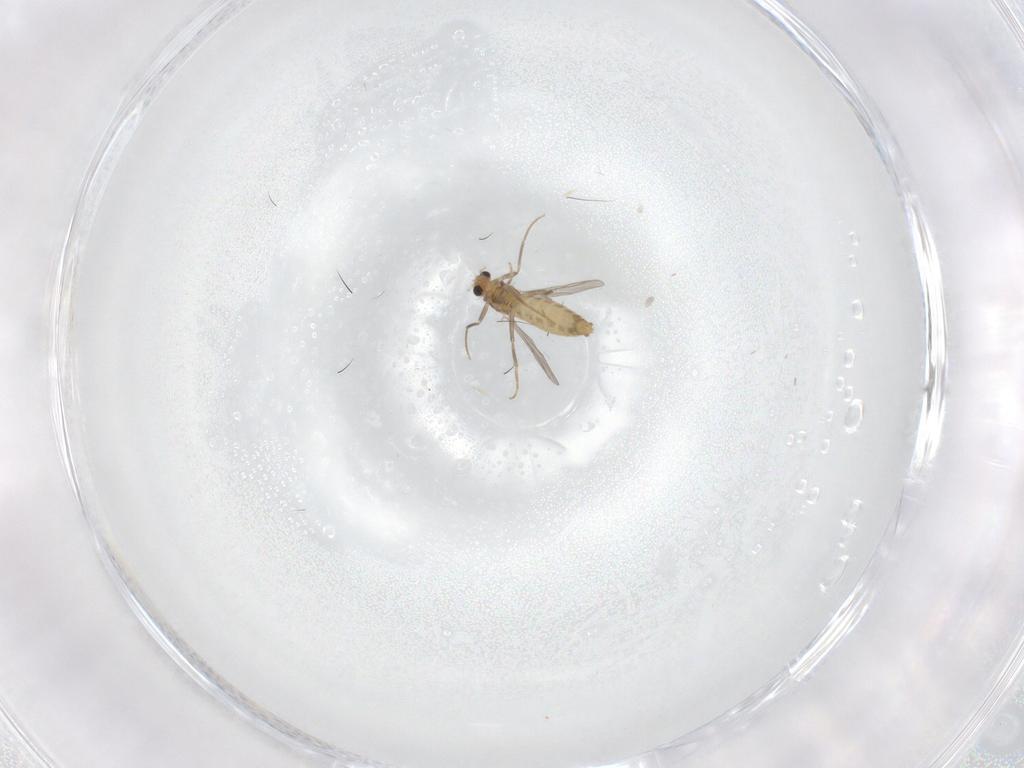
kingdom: Animalia
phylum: Arthropoda
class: Insecta
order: Diptera
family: Chironomidae
